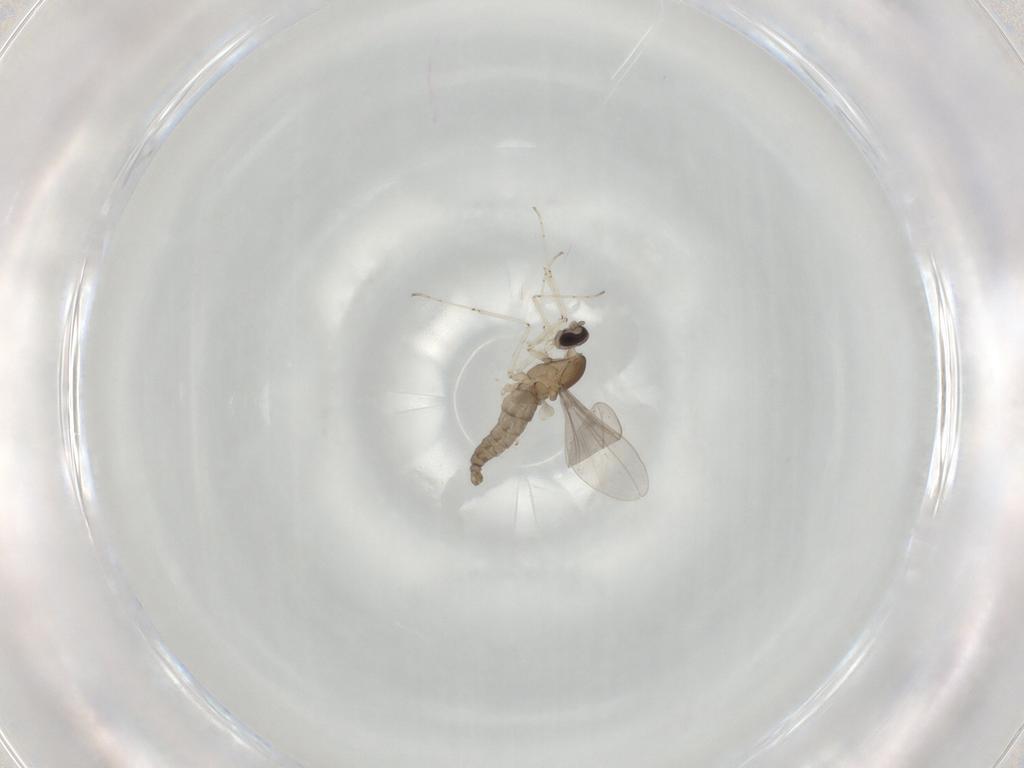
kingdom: Animalia
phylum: Arthropoda
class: Insecta
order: Diptera
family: Cecidomyiidae
